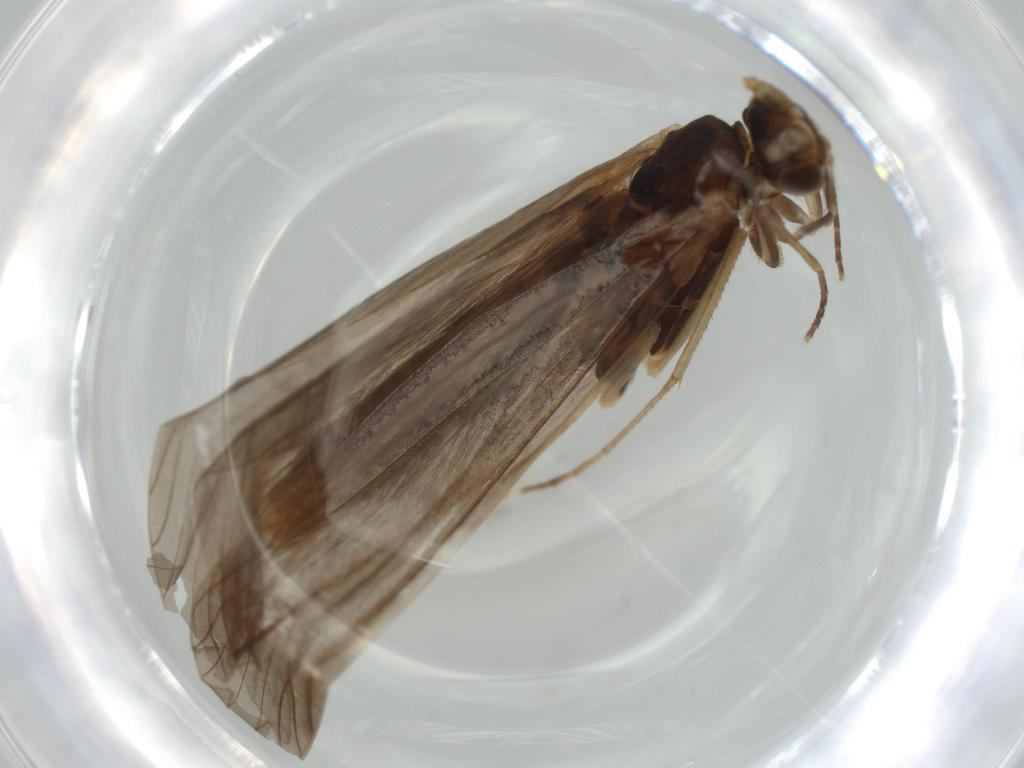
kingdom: Animalia
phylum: Arthropoda
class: Insecta
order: Trichoptera
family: Leptoceridae
